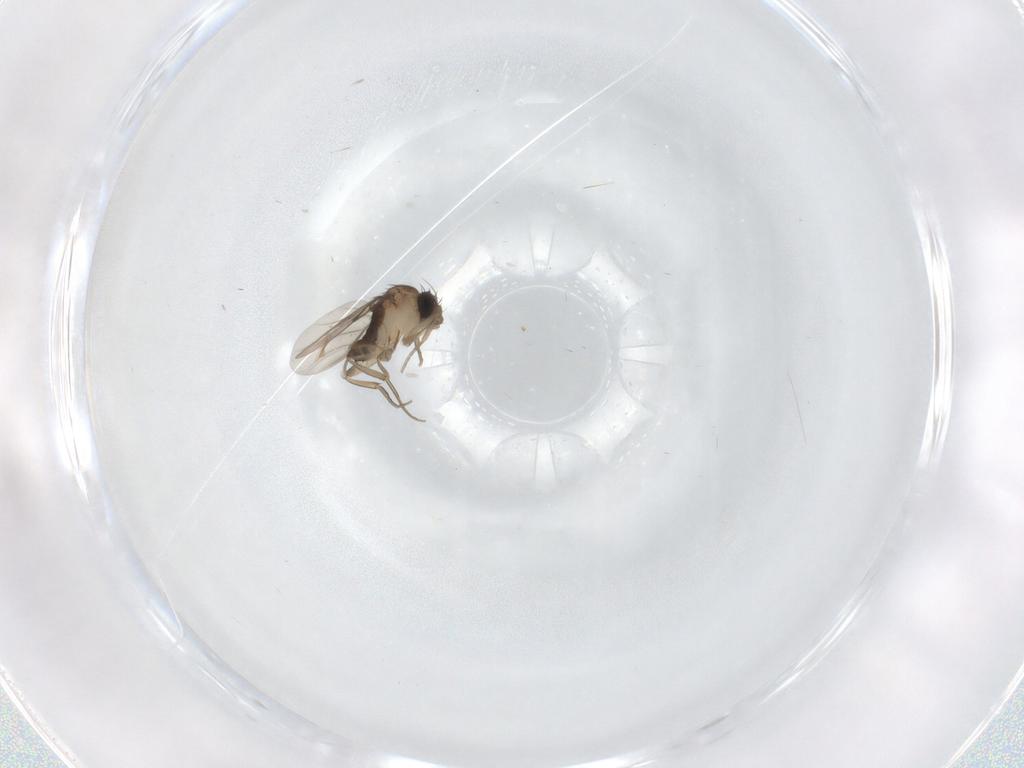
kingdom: Animalia
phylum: Arthropoda
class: Insecta
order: Diptera
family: Phoridae
